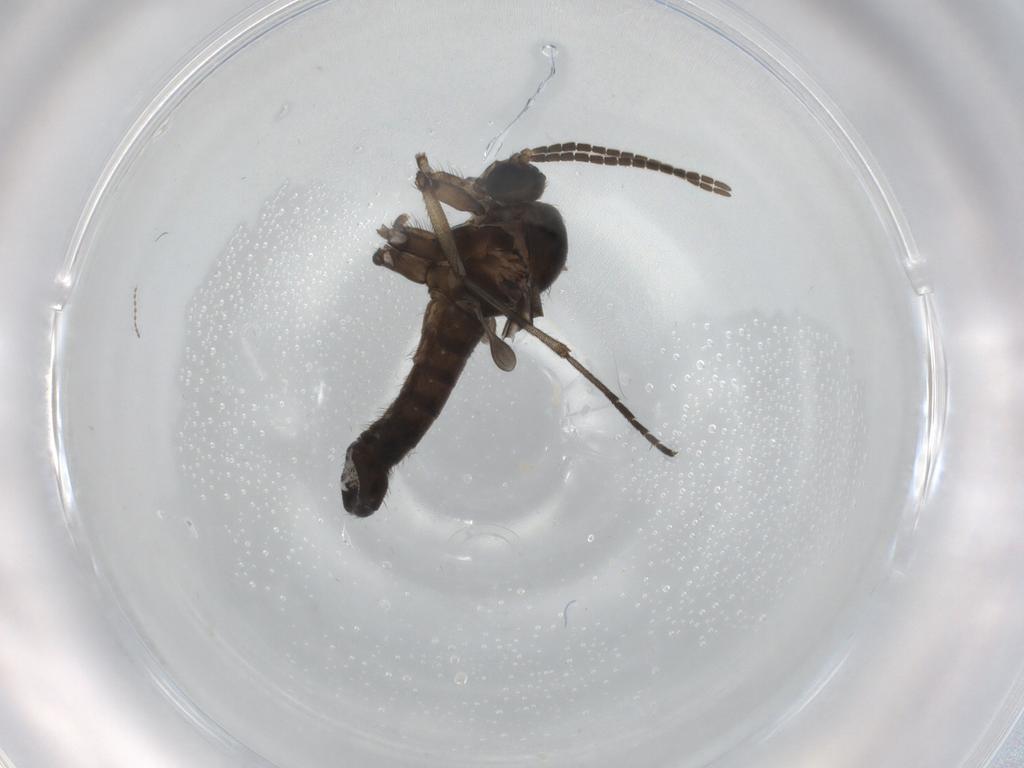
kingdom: Animalia
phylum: Arthropoda
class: Insecta
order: Diptera
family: Sciaridae
